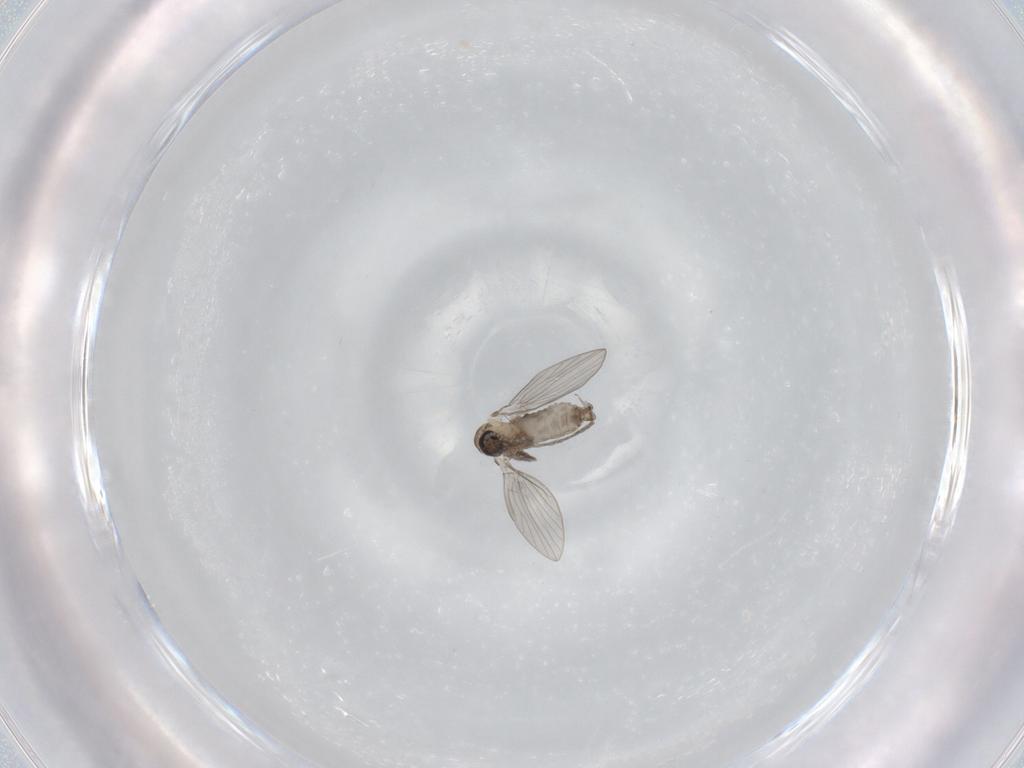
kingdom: Animalia
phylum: Arthropoda
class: Insecta
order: Diptera
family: Psychodidae
